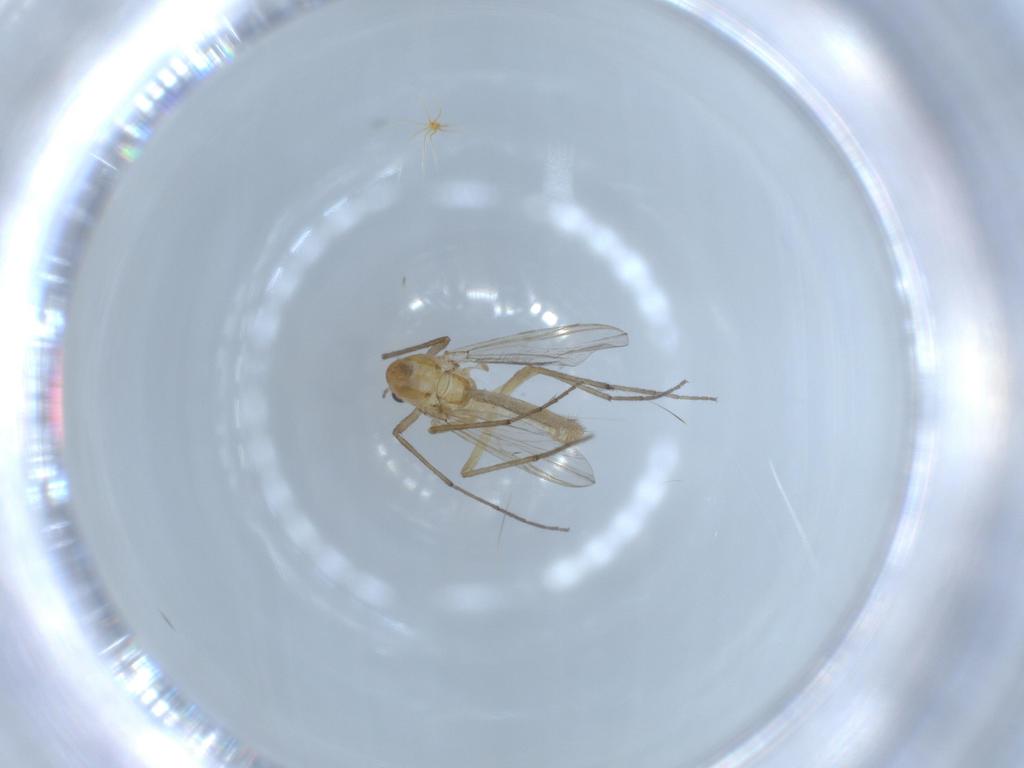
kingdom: Animalia
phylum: Arthropoda
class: Insecta
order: Diptera
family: Chironomidae
